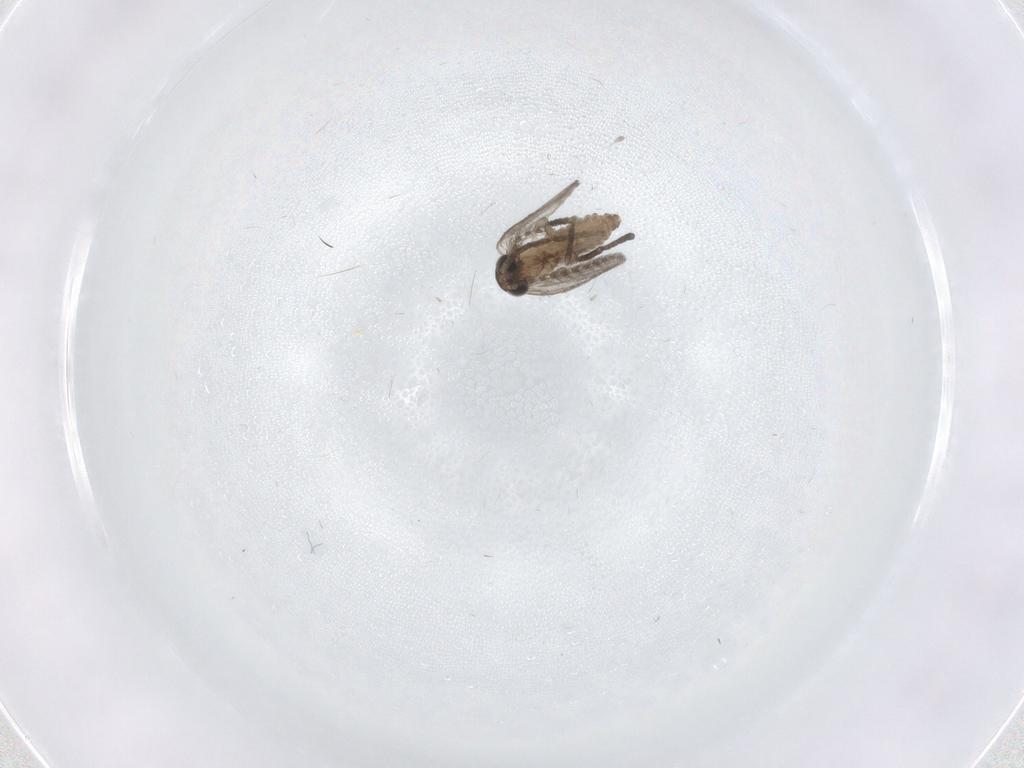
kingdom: Animalia
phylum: Arthropoda
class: Insecta
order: Diptera
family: Psychodidae
